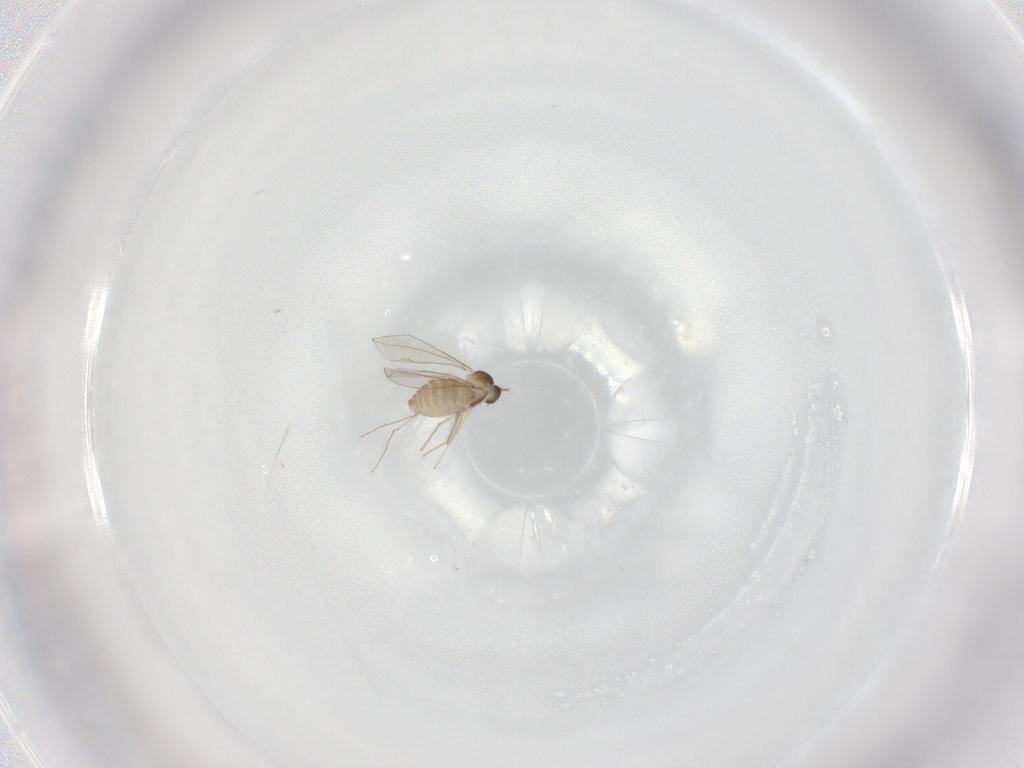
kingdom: Animalia
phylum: Arthropoda
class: Insecta
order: Diptera
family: Cecidomyiidae
